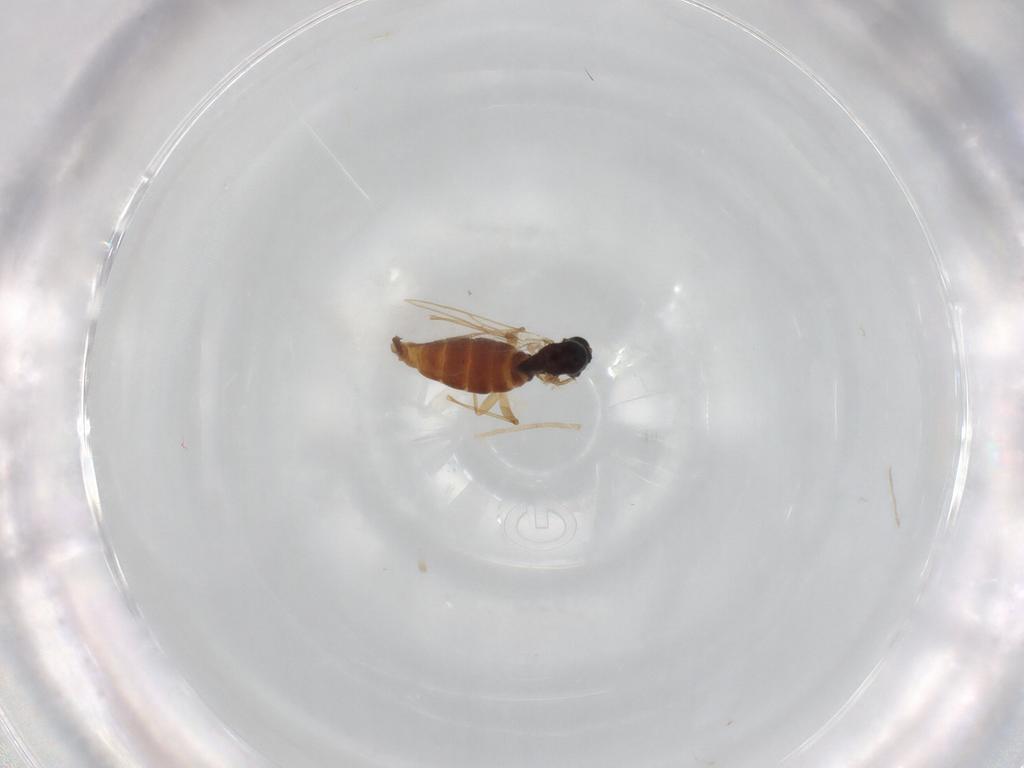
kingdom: Animalia
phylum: Arthropoda
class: Insecta
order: Diptera
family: Sciaridae
